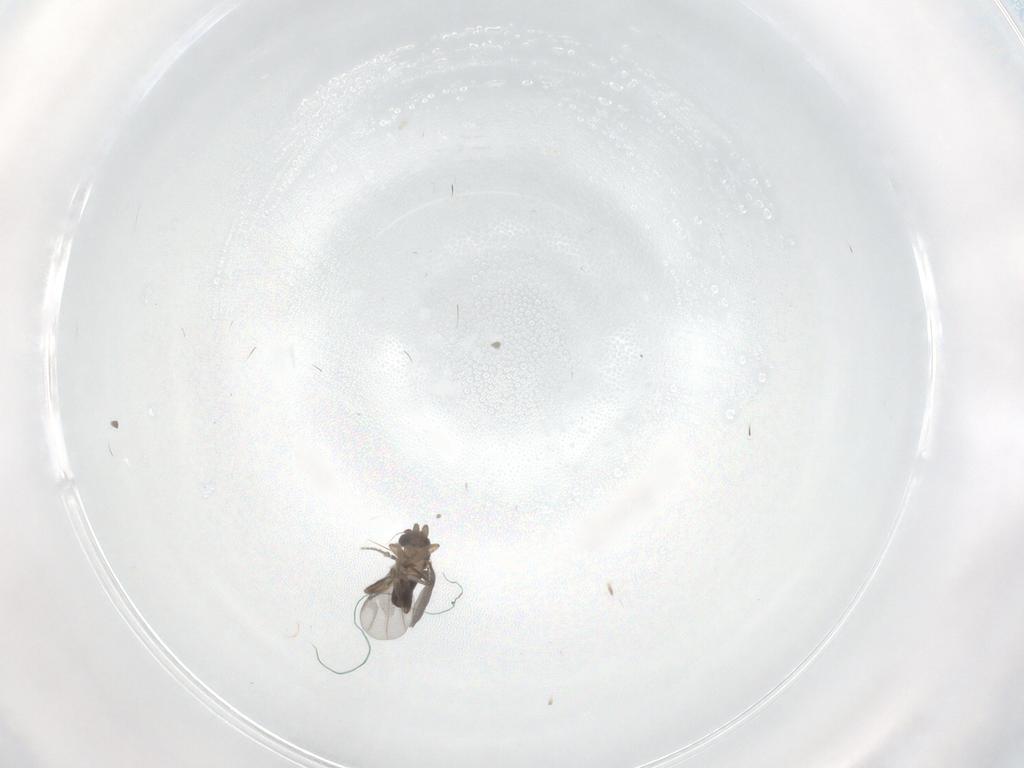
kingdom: Animalia
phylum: Arthropoda
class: Insecta
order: Diptera
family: Cecidomyiidae
